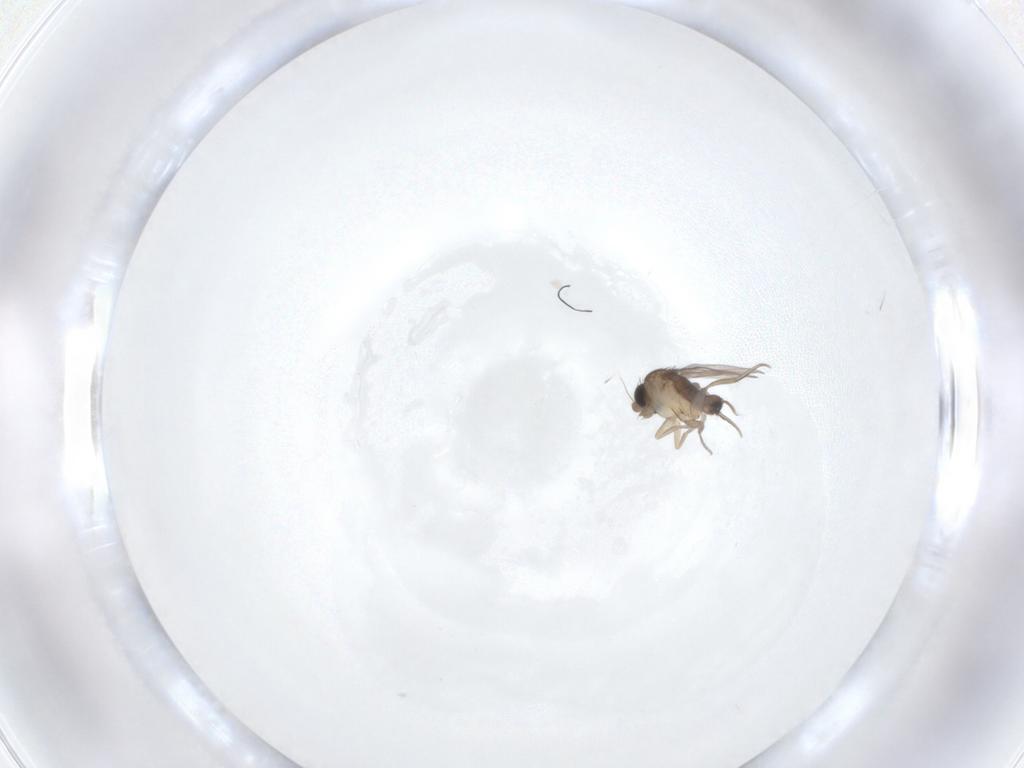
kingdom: Animalia
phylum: Arthropoda
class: Insecta
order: Diptera
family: Phoridae
